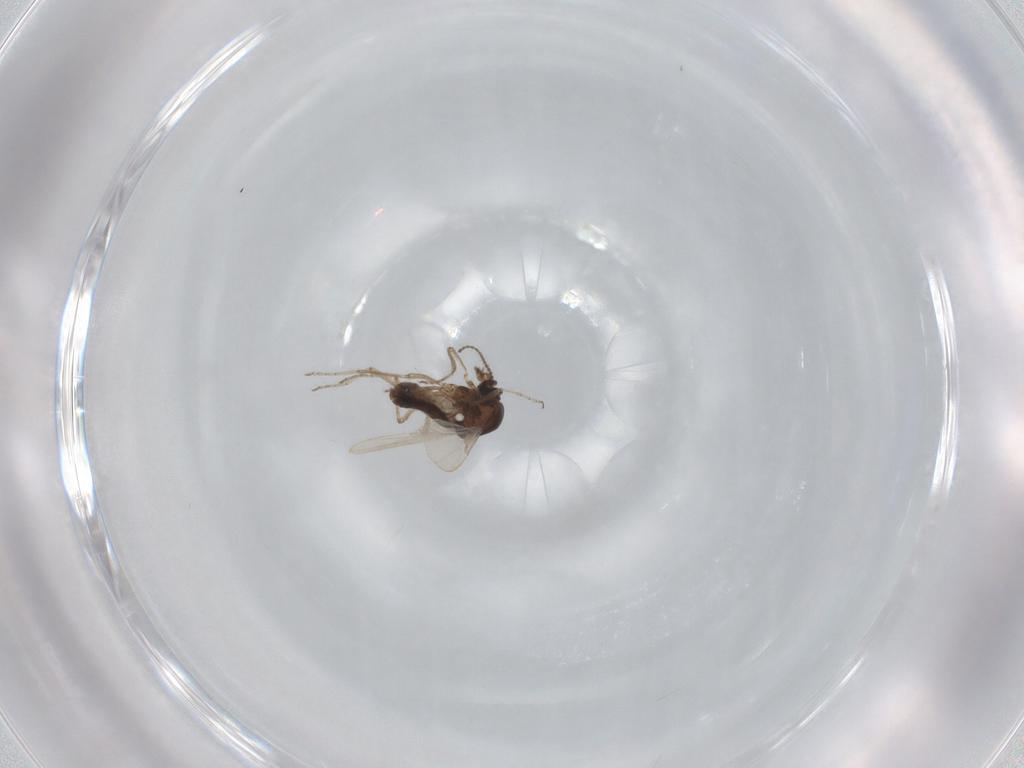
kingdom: Animalia
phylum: Arthropoda
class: Insecta
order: Diptera
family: Ceratopogonidae
